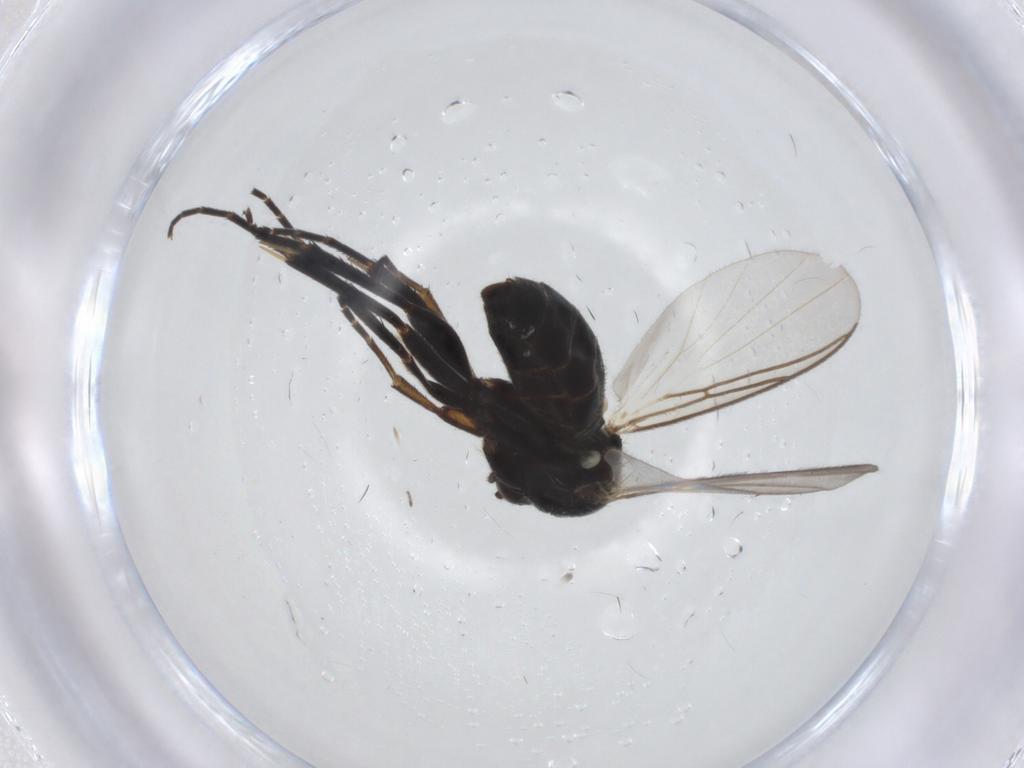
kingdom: Animalia
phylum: Arthropoda
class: Insecta
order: Diptera
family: Mycetophilidae
